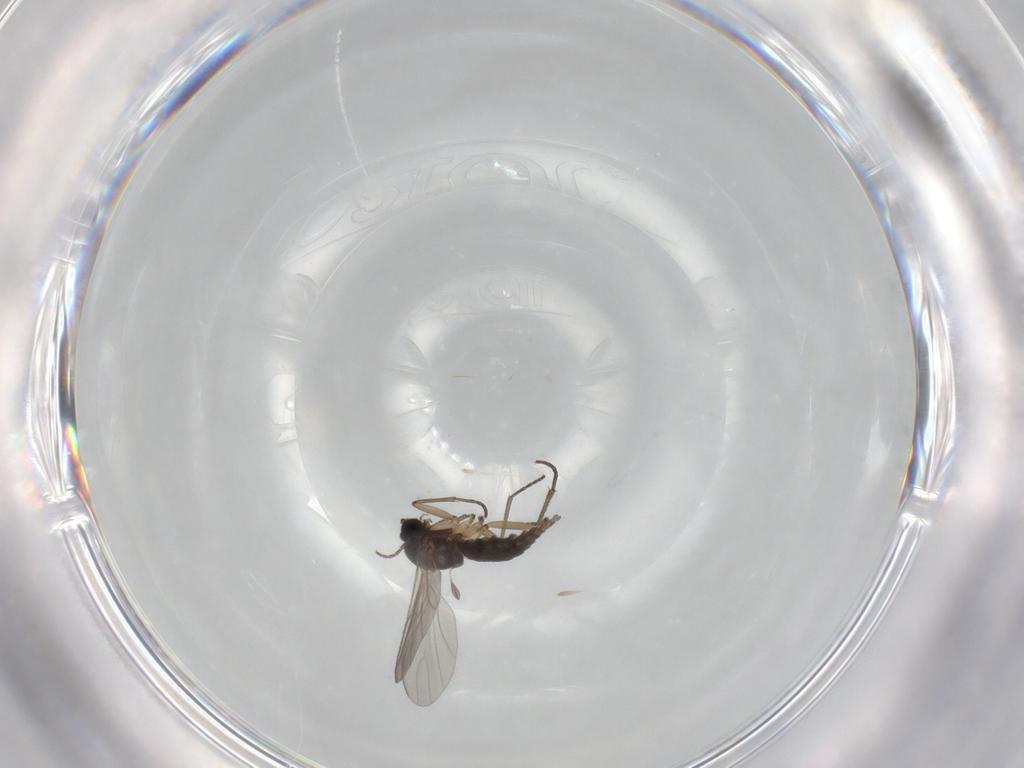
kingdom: Animalia
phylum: Arthropoda
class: Insecta
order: Diptera
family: Sciaridae
